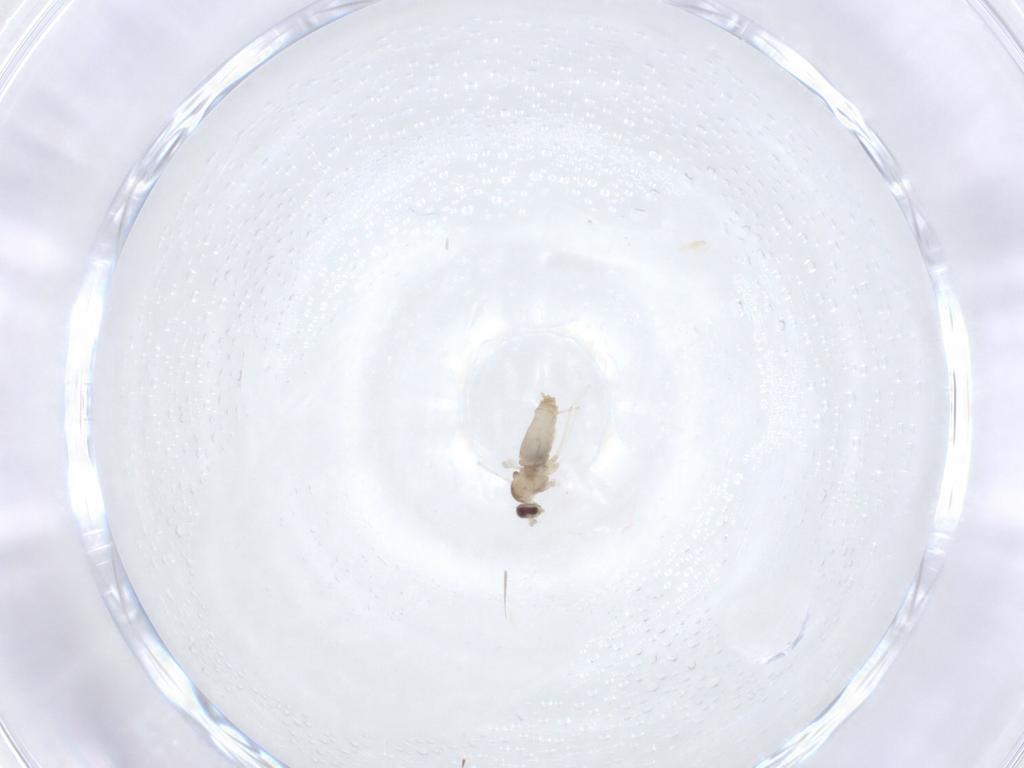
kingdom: Animalia
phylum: Arthropoda
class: Insecta
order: Diptera
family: Cecidomyiidae
